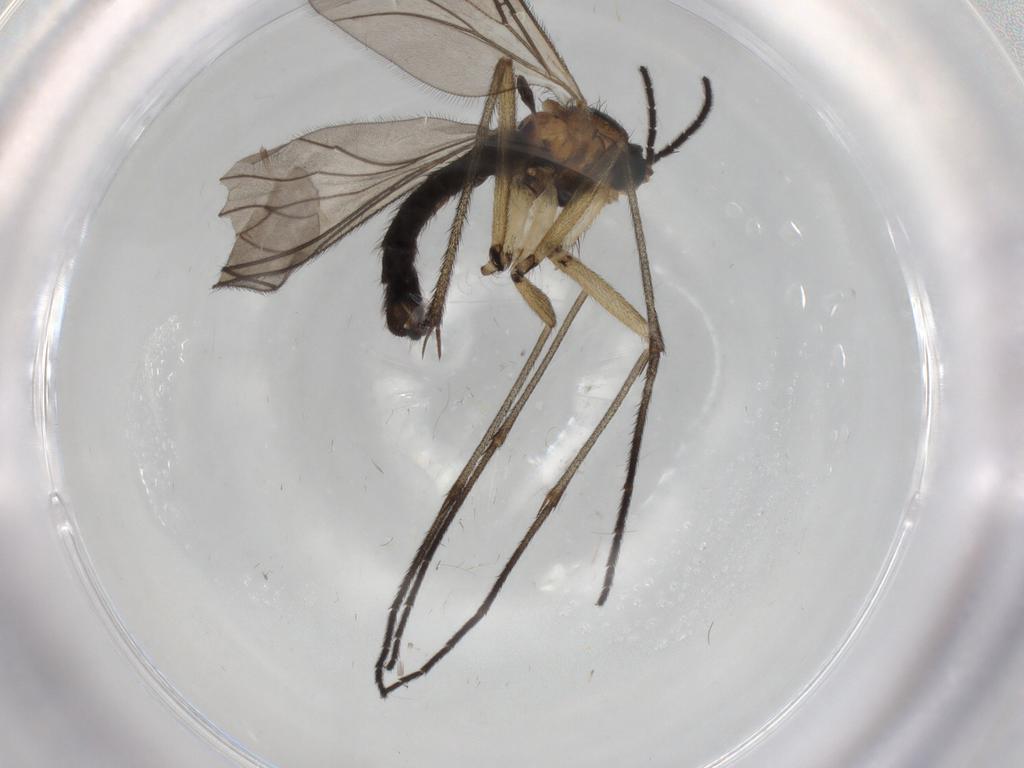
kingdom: Animalia
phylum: Arthropoda
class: Insecta
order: Diptera
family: Sciaridae
